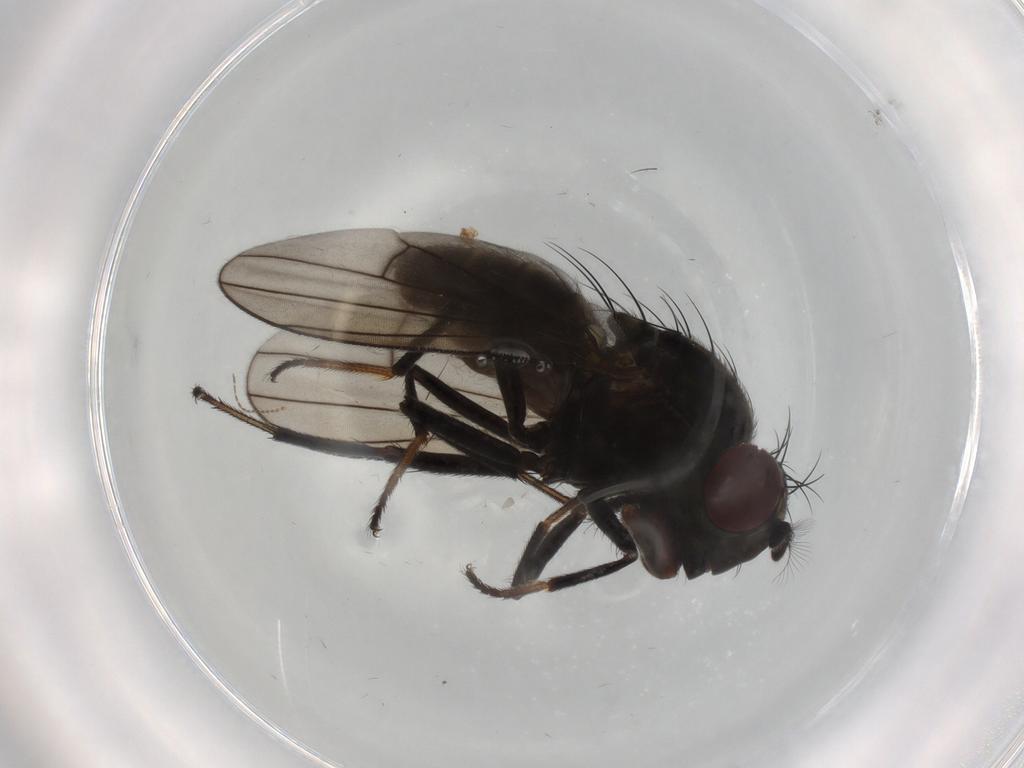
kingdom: Animalia
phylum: Arthropoda
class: Insecta
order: Diptera
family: Ephydridae
